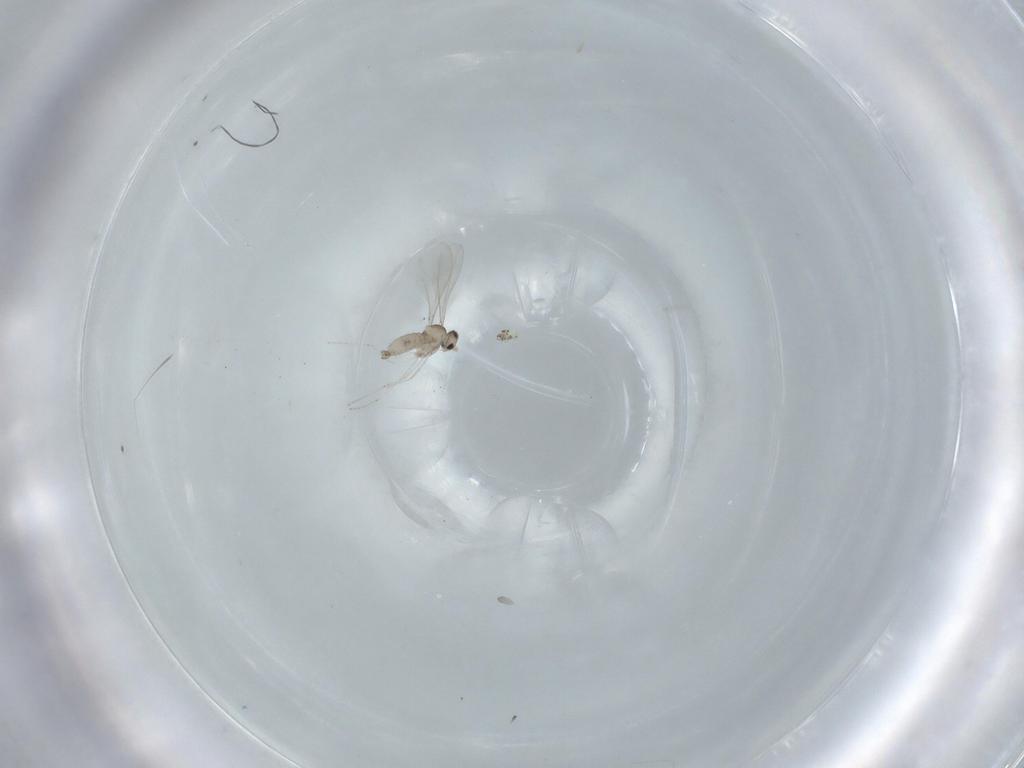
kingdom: Animalia
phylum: Arthropoda
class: Insecta
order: Diptera
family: Cecidomyiidae
